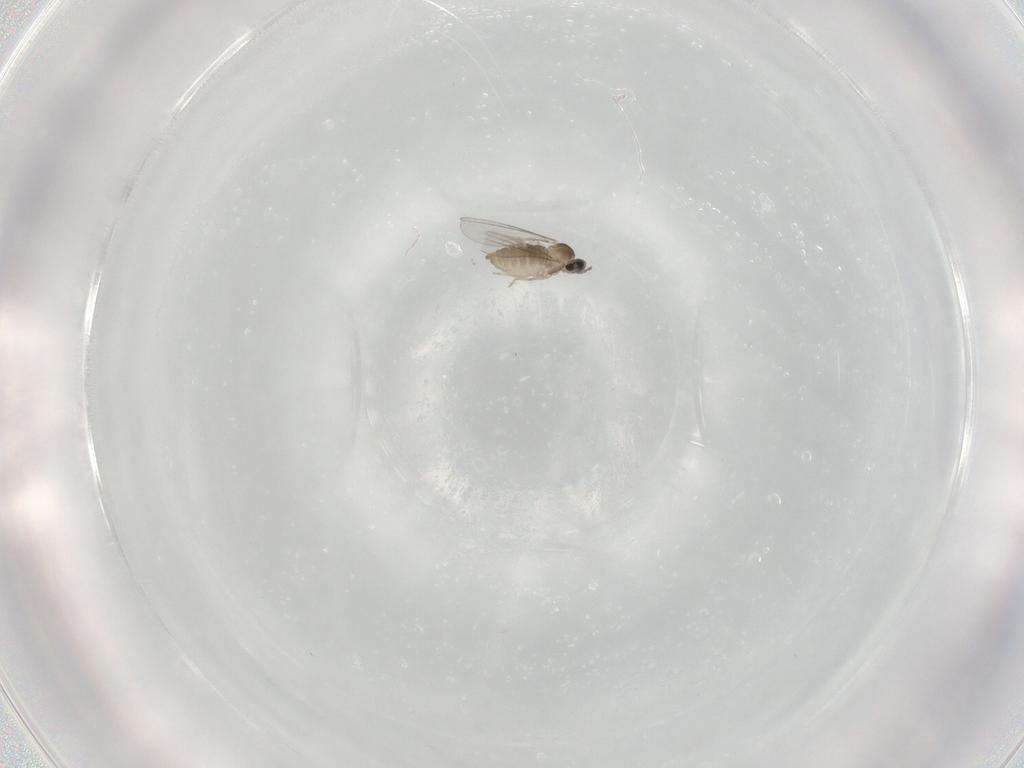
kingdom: Animalia
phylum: Arthropoda
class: Insecta
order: Diptera
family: Cecidomyiidae
